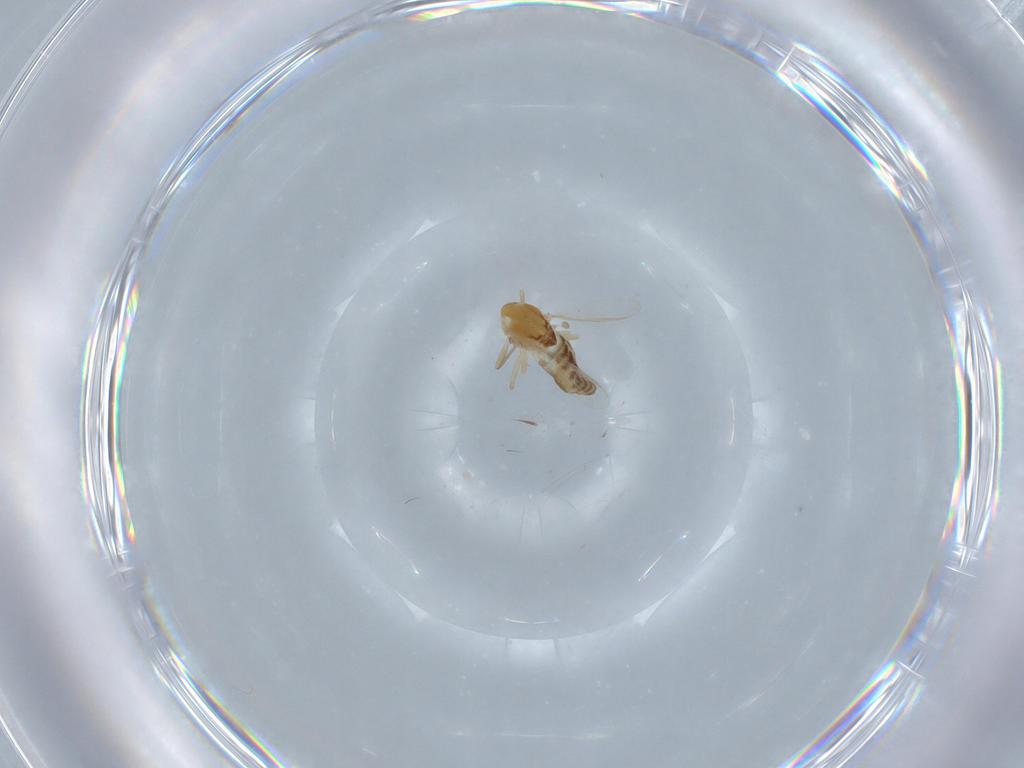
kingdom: Animalia
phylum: Arthropoda
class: Insecta
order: Diptera
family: Chironomidae
